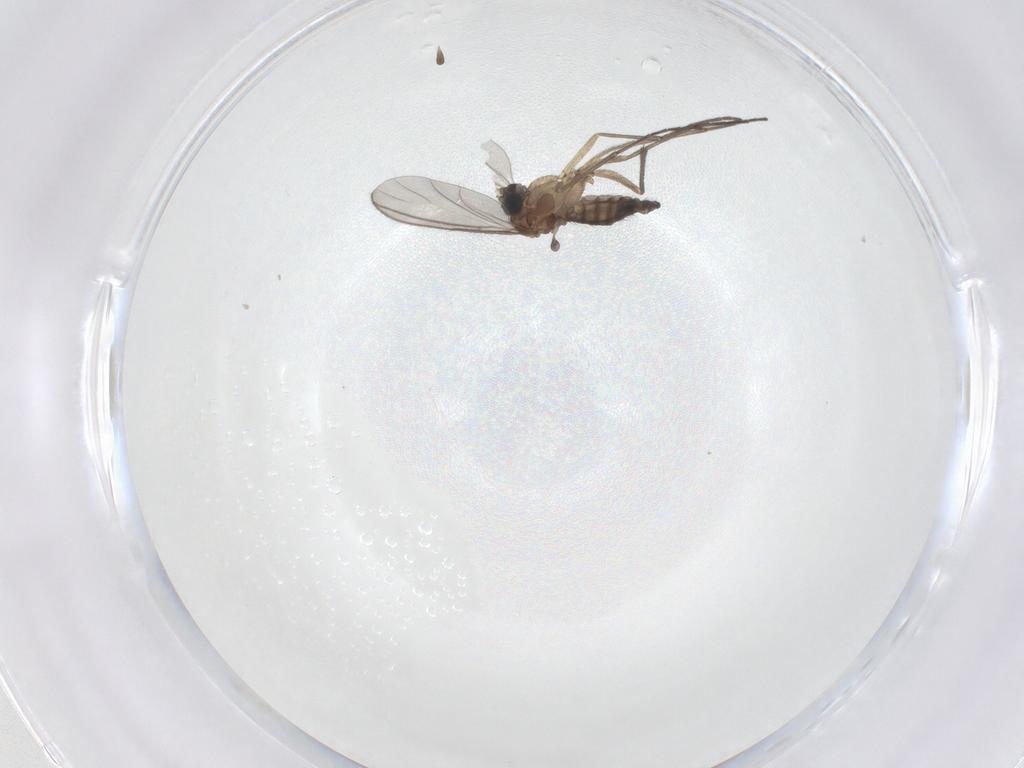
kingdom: Animalia
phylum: Arthropoda
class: Insecta
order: Diptera
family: Sciaridae
